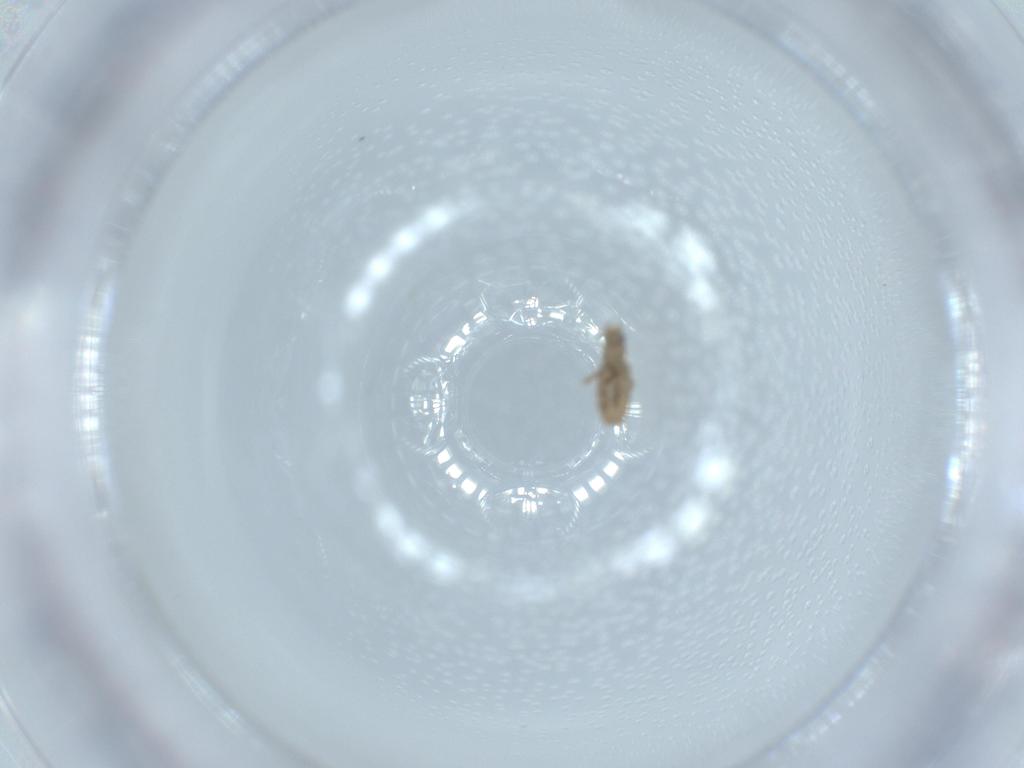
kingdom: Animalia
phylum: Arthropoda
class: Insecta
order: Diptera
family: Phoridae
